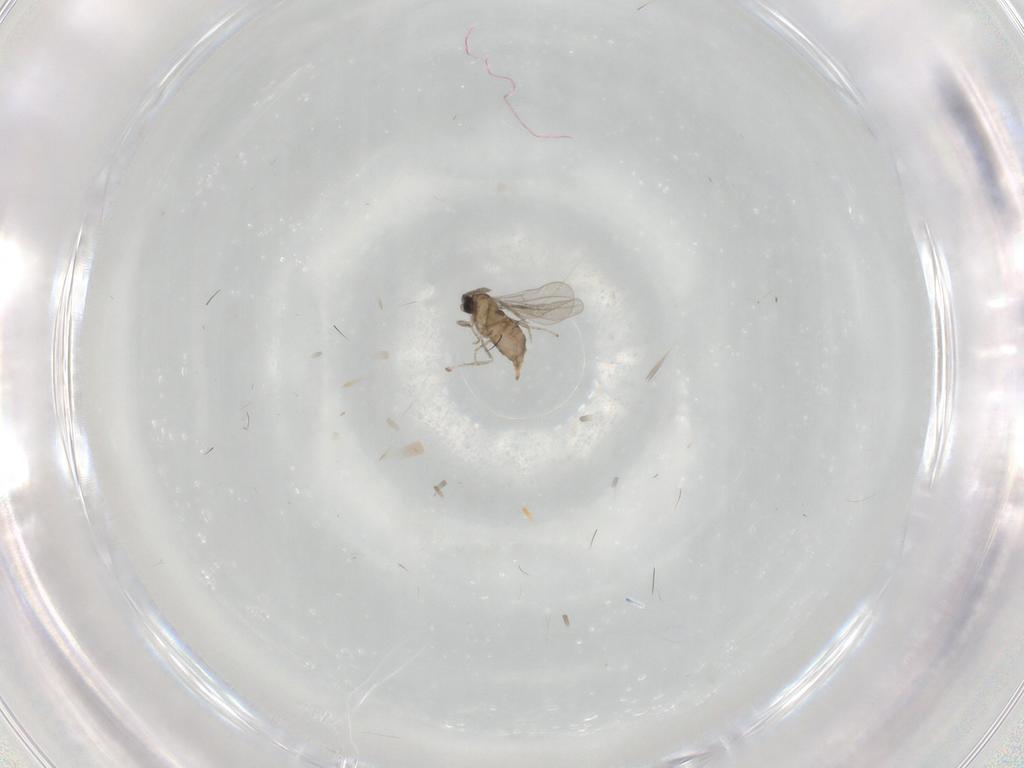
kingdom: Animalia
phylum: Arthropoda
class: Insecta
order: Diptera
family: Cecidomyiidae
